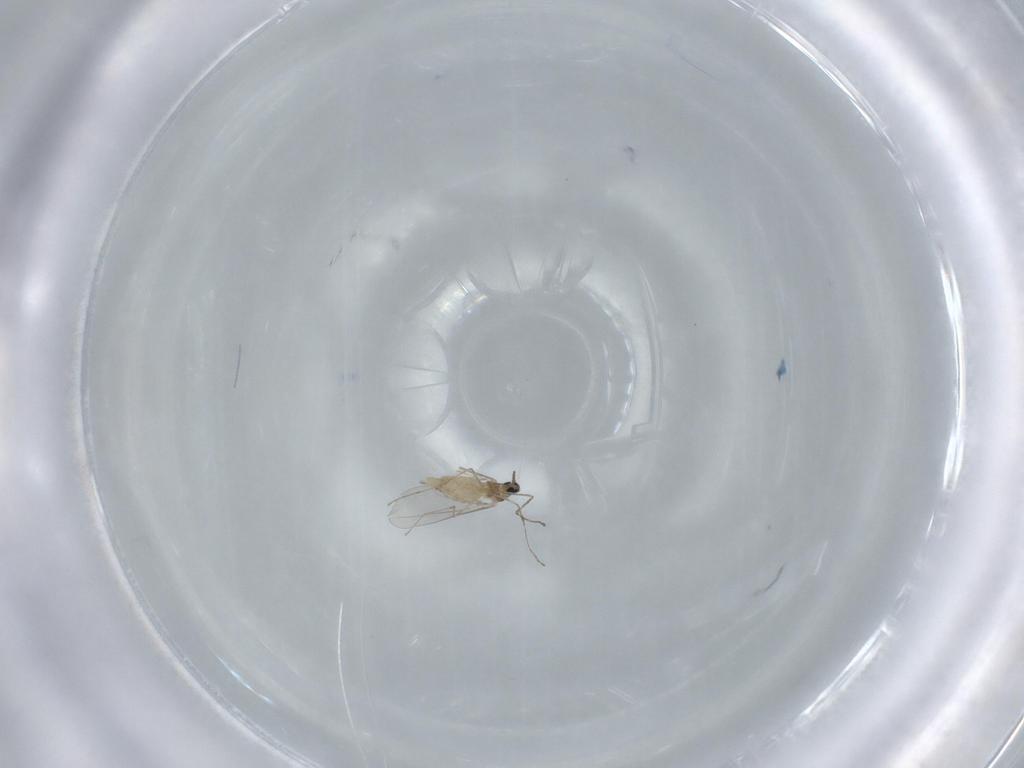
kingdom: Animalia
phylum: Arthropoda
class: Insecta
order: Diptera
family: Cecidomyiidae
